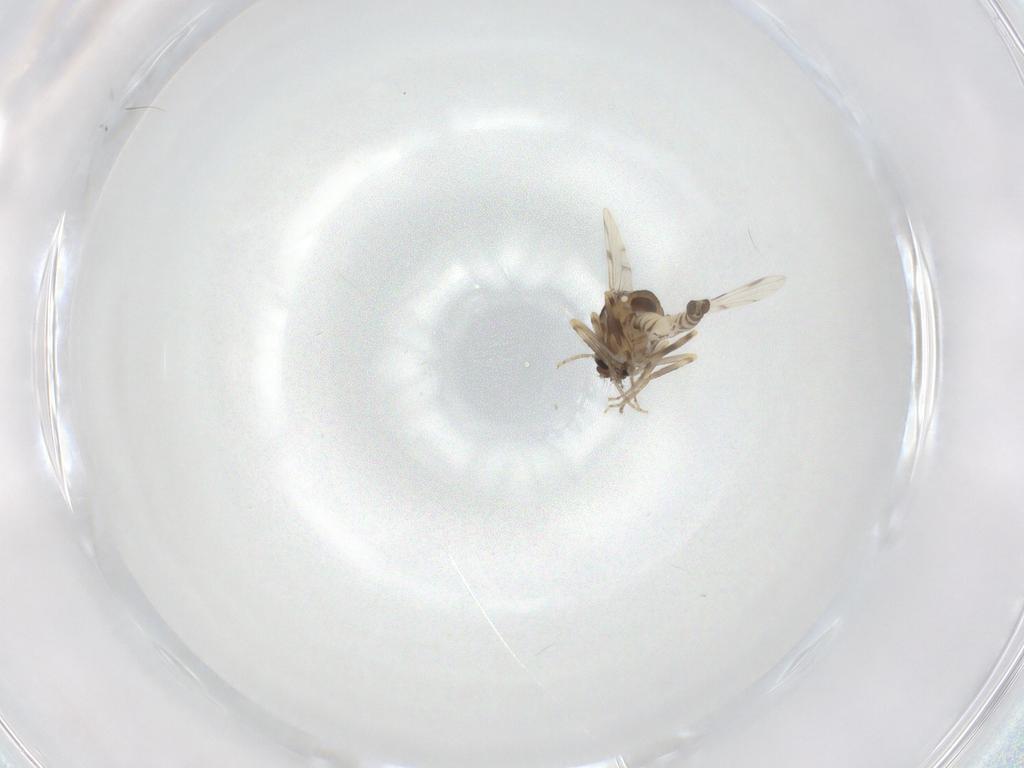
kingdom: Animalia
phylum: Arthropoda
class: Insecta
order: Diptera
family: Ceratopogonidae
